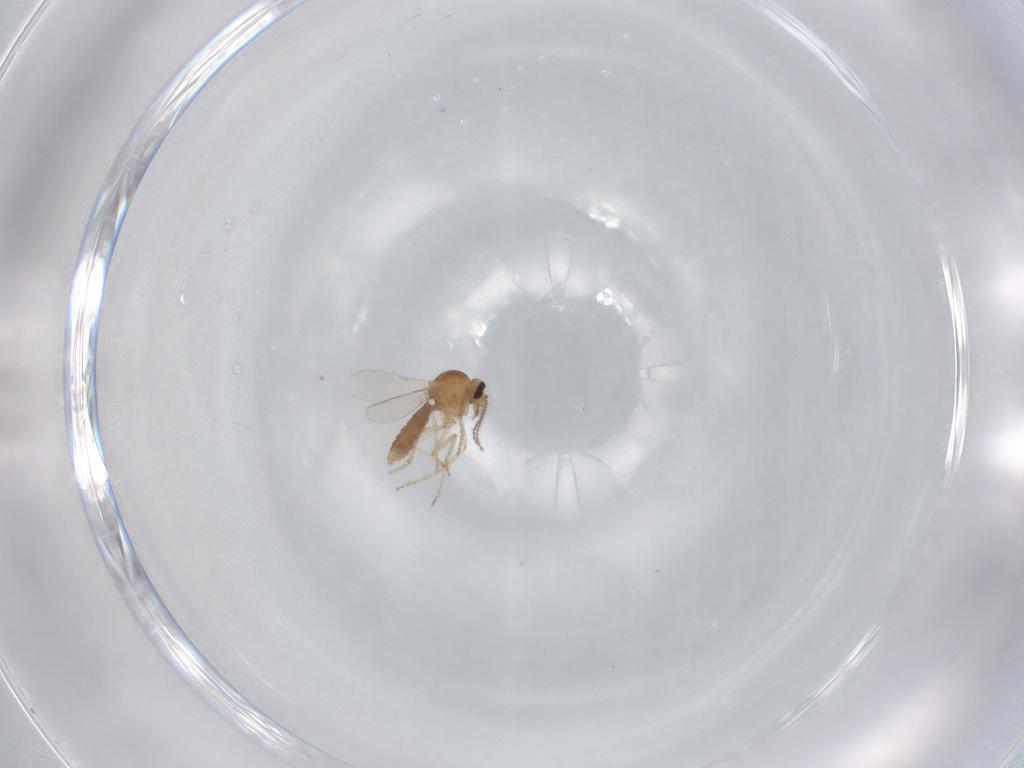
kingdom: Animalia
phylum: Arthropoda
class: Insecta
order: Diptera
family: Ceratopogonidae
